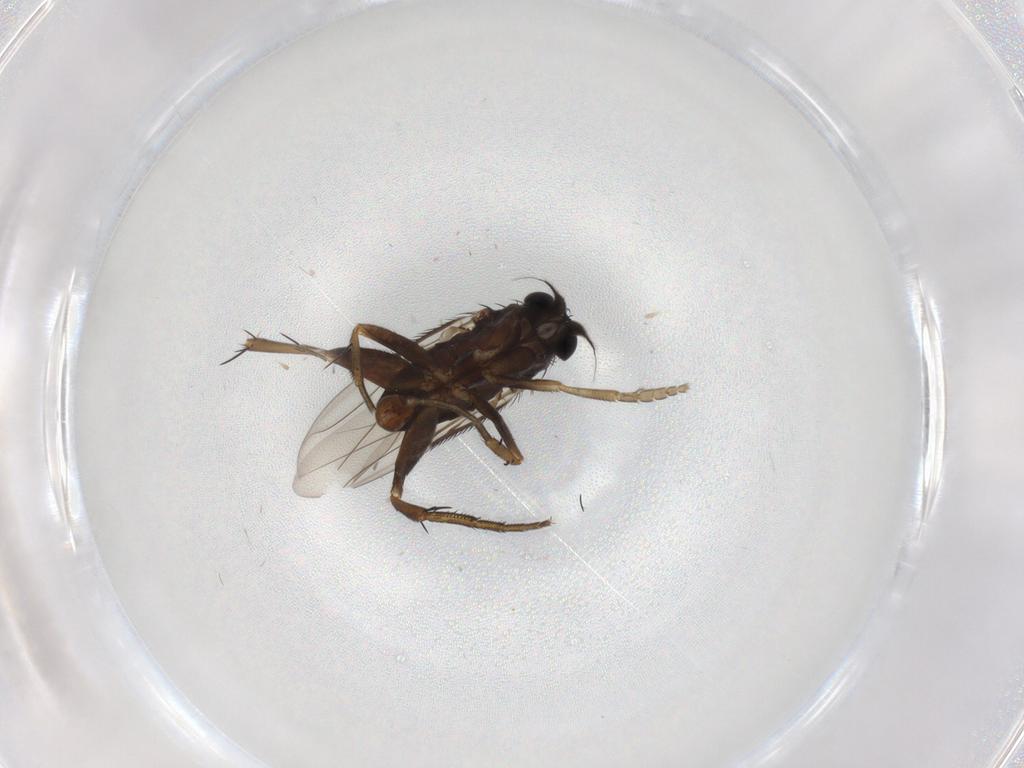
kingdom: Animalia
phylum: Arthropoda
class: Insecta
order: Diptera
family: Phoridae
